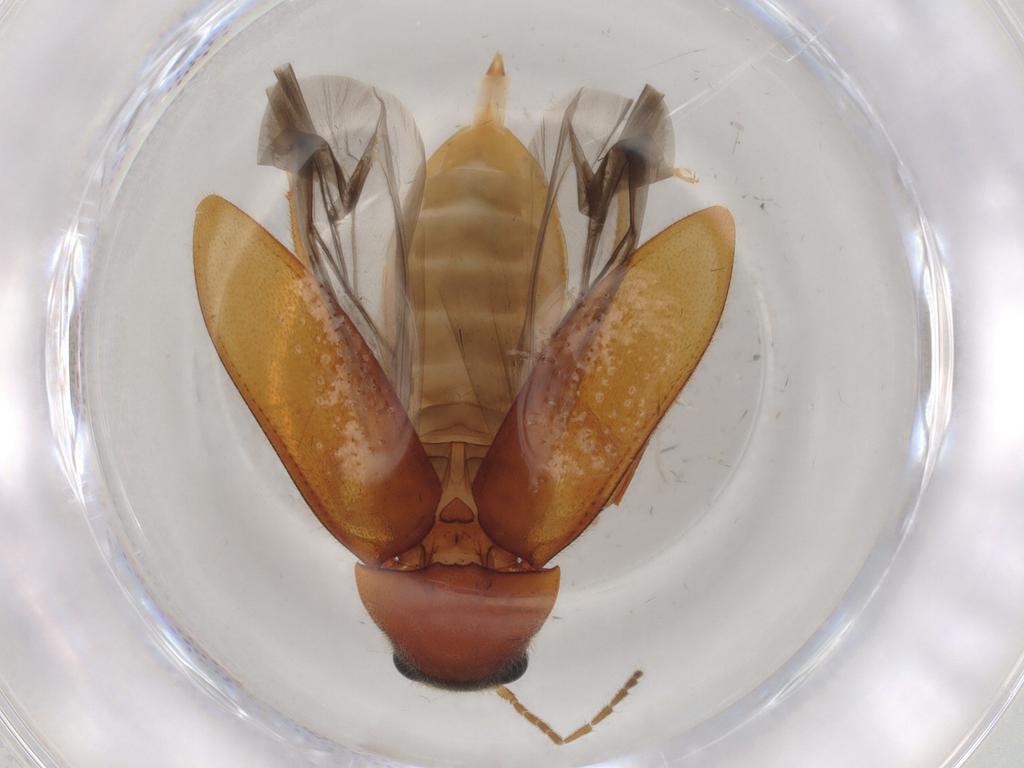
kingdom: Animalia
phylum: Arthropoda
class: Insecta
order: Coleoptera
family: Ptilodactylidae
